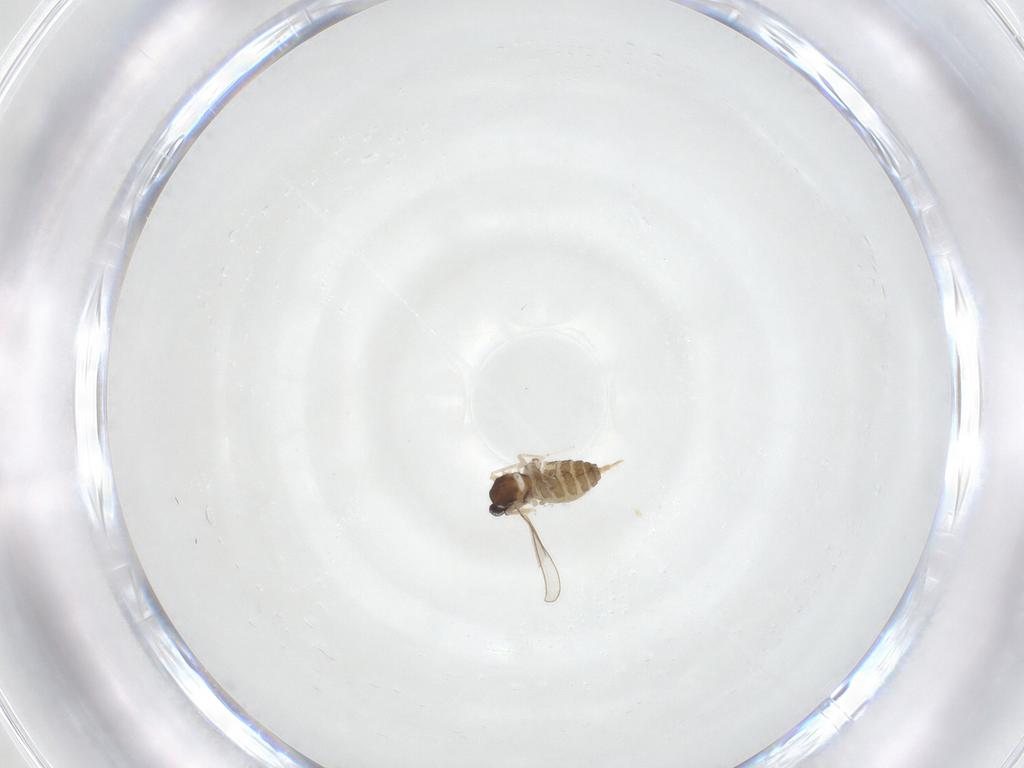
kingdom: Animalia
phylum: Arthropoda
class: Insecta
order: Diptera
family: Cecidomyiidae
